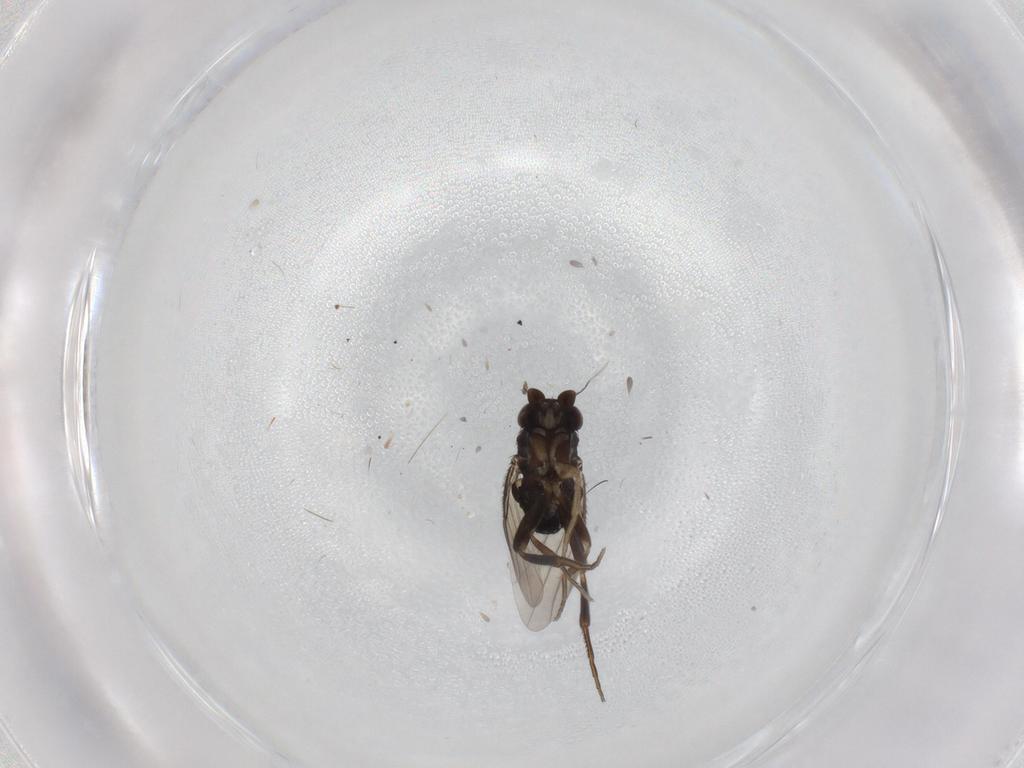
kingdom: Animalia
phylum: Arthropoda
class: Insecta
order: Diptera
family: Phoridae
